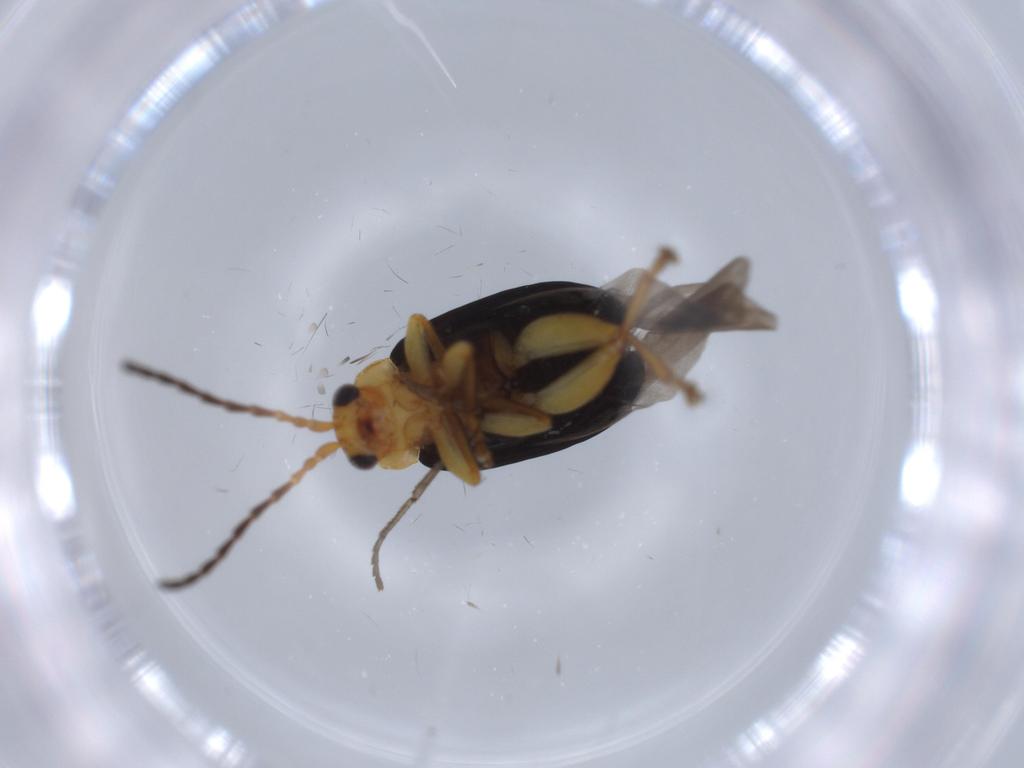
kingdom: Animalia
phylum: Arthropoda
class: Insecta
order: Coleoptera
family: Chrysomelidae
